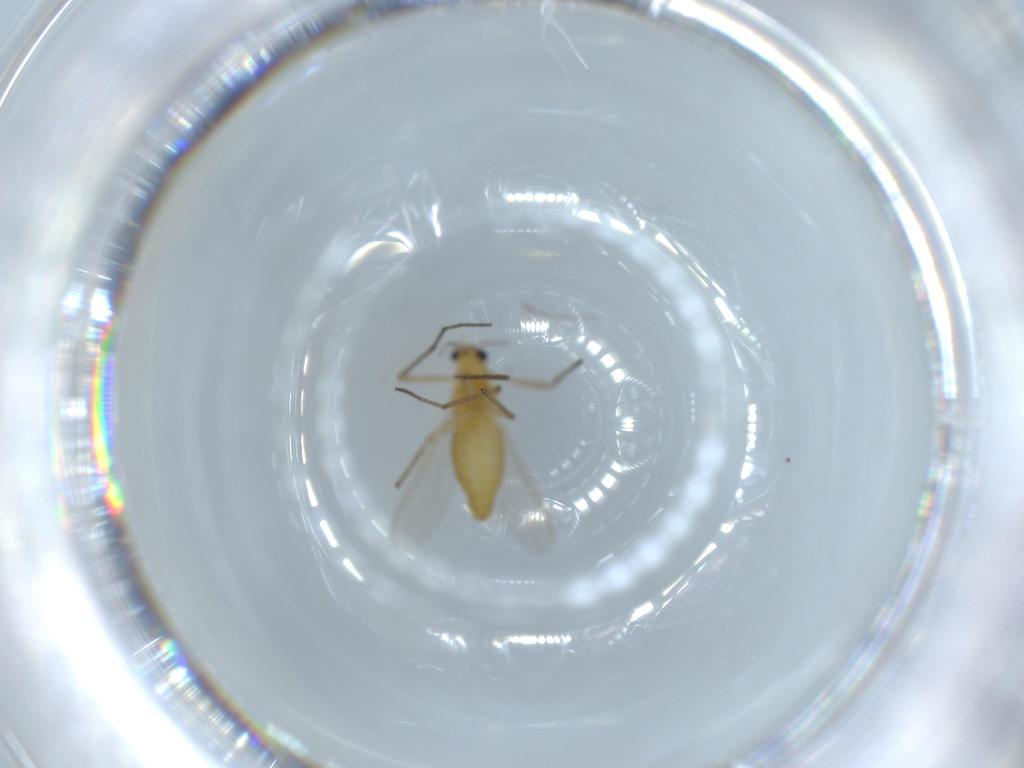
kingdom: Animalia
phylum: Arthropoda
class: Insecta
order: Diptera
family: Chironomidae
